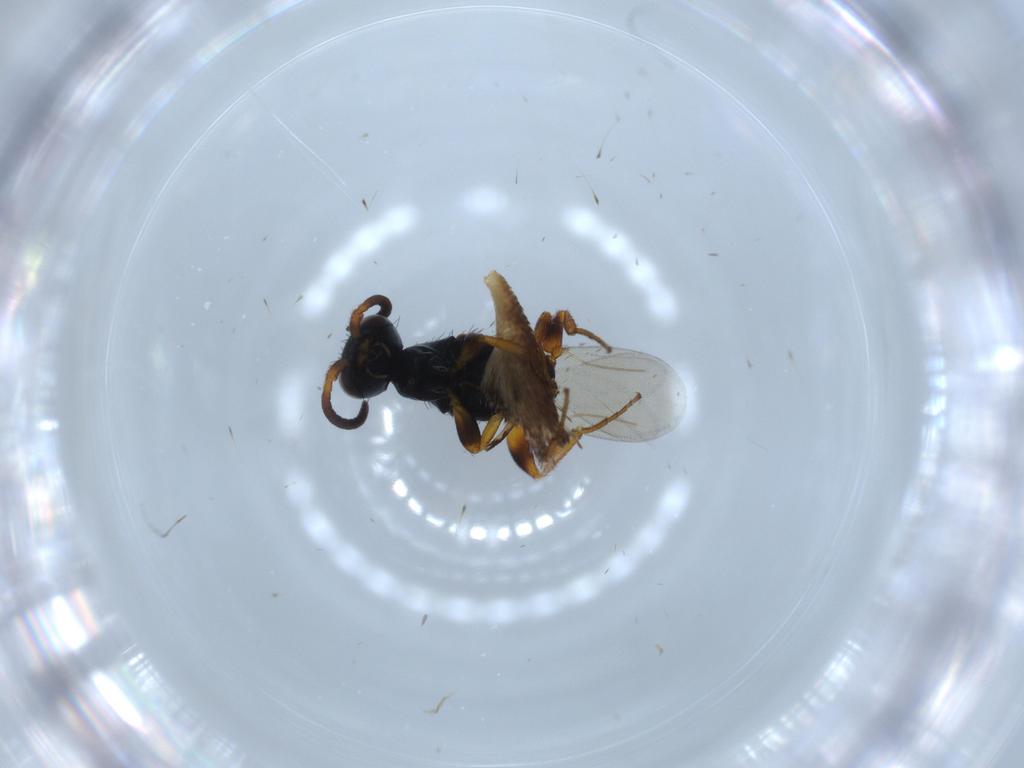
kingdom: Animalia
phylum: Arthropoda
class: Insecta
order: Hymenoptera
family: Bethylidae
